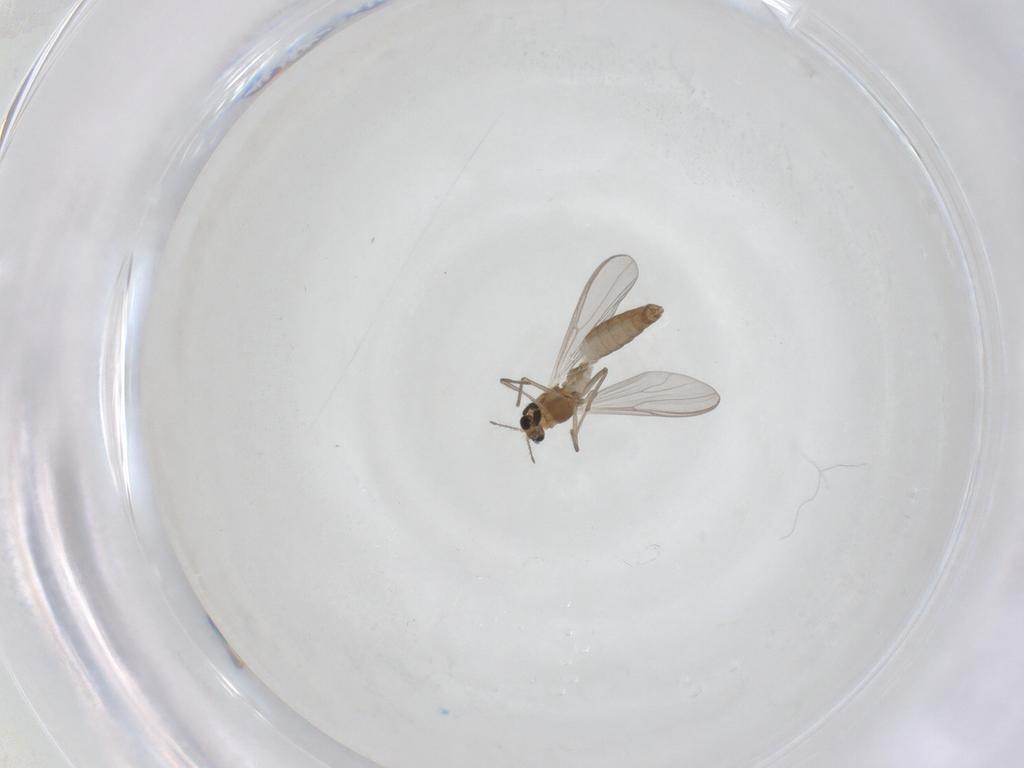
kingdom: Animalia
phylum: Arthropoda
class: Insecta
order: Diptera
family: Chironomidae
